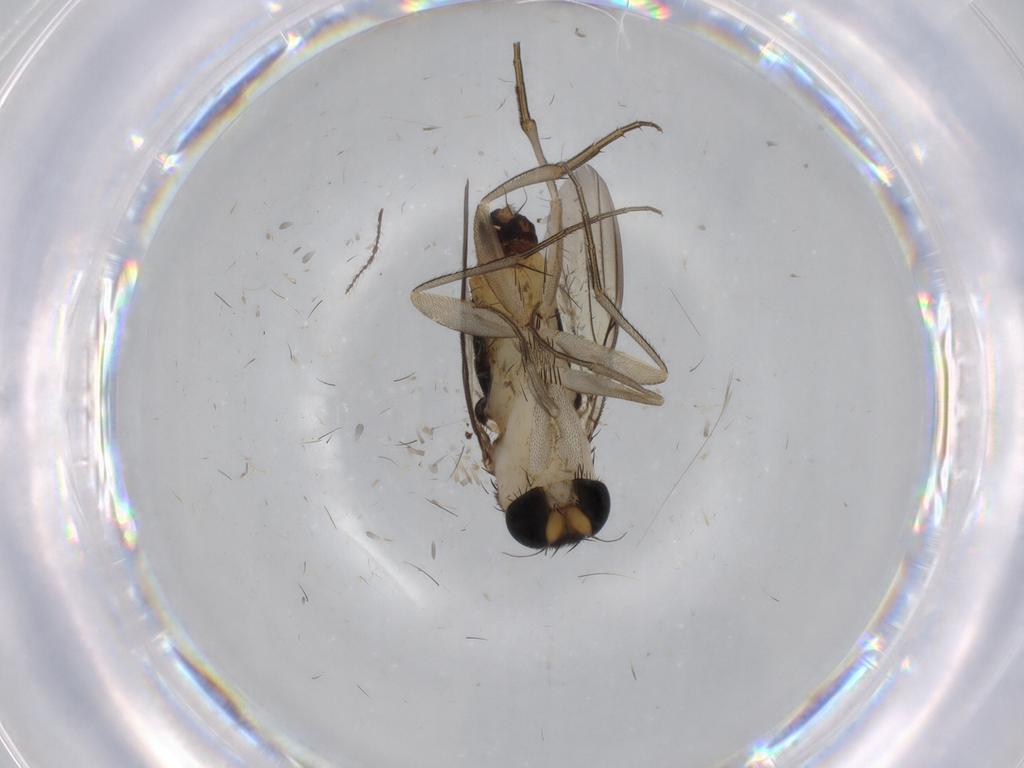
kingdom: Animalia
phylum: Arthropoda
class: Insecta
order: Diptera
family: Phoridae
